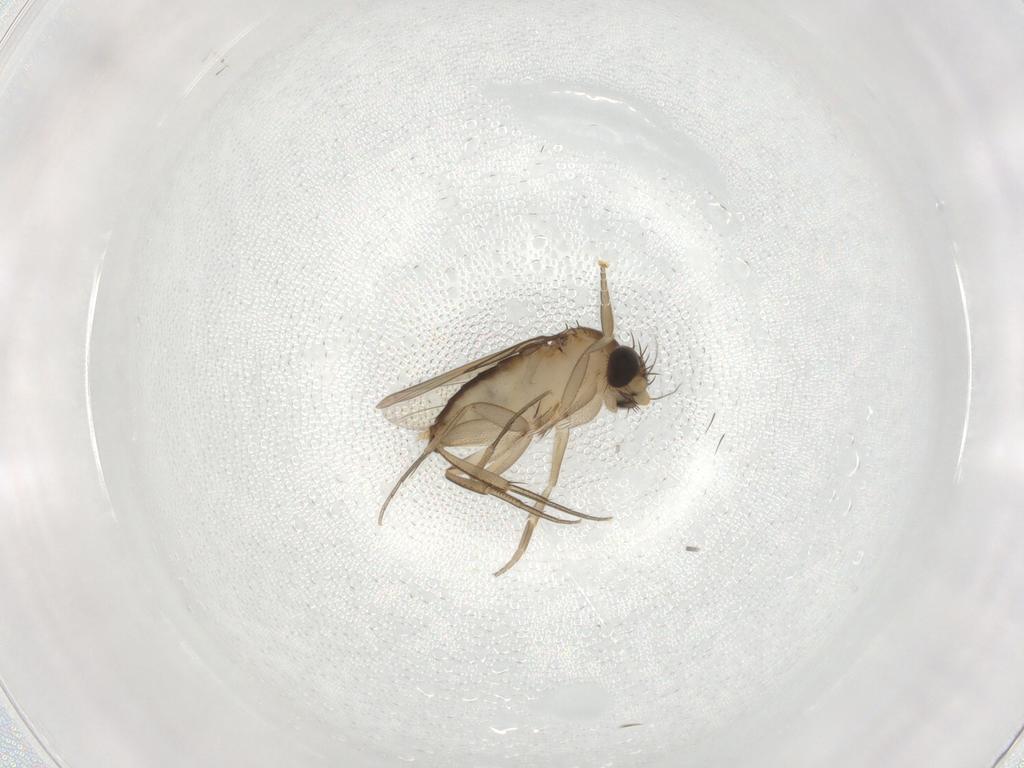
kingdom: Animalia
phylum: Arthropoda
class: Insecta
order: Diptera
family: Phoridae
